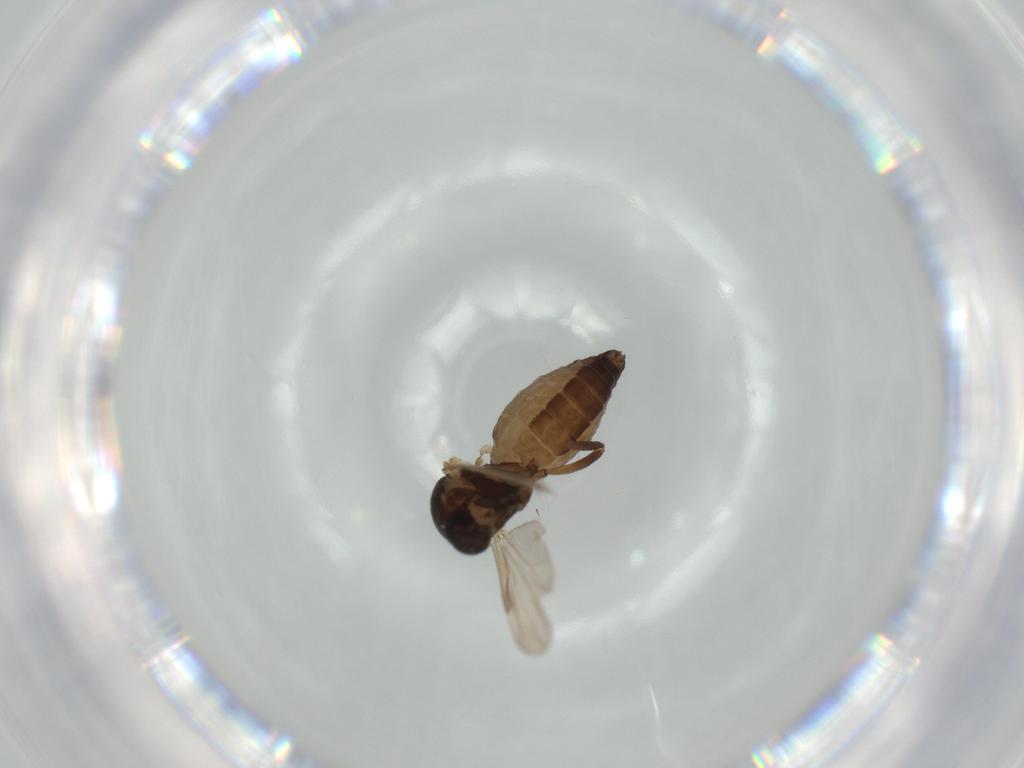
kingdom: Animalia
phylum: Arthropoda
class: Insecta
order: Diptera
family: Ceratopogonidae
